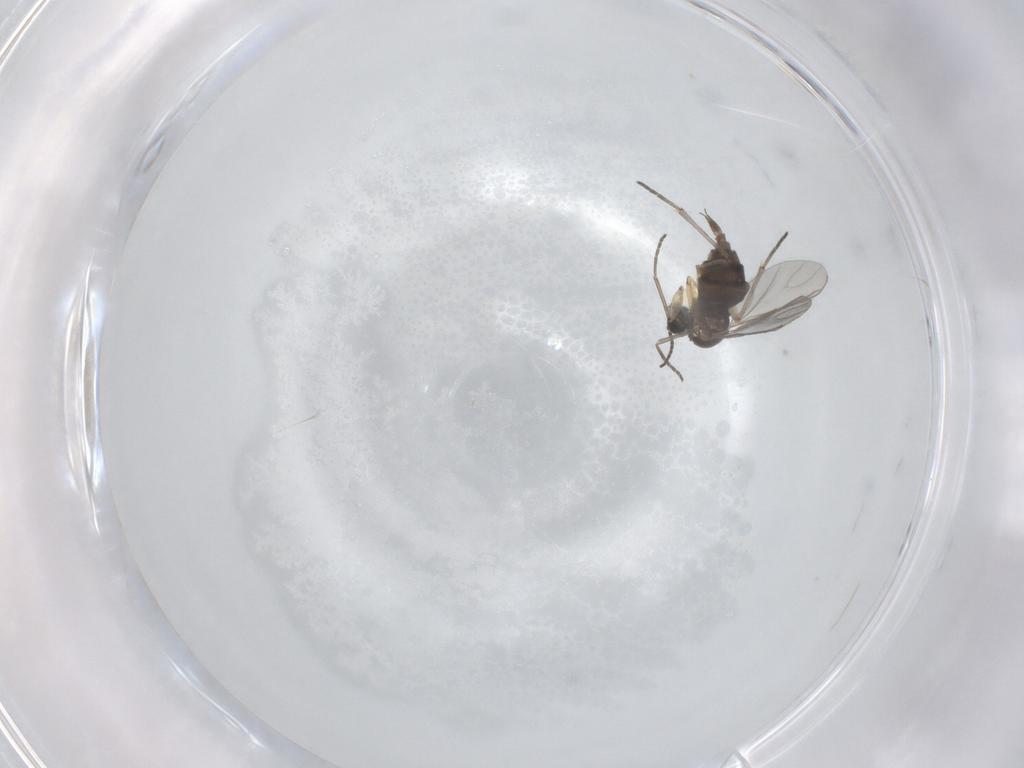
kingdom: Animalia
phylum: Arthropoda
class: Insecta
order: Diptera
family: Sciaridae
